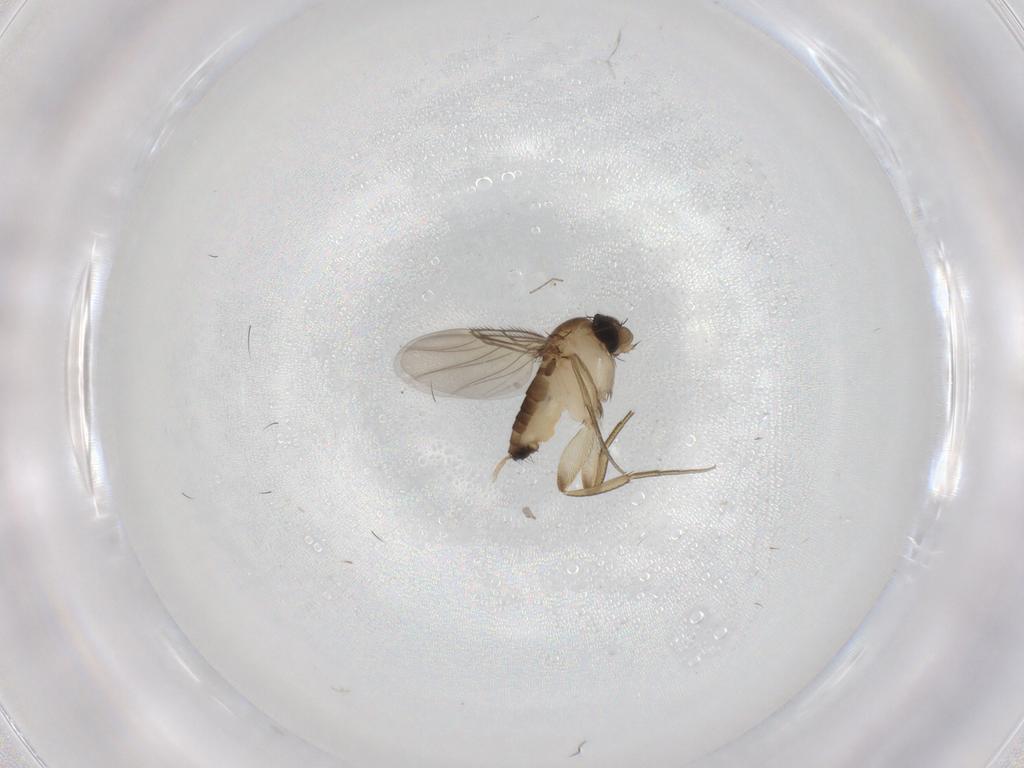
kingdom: Animalia
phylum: Arthropoda
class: Insecta
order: Diptera
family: Phoridae
